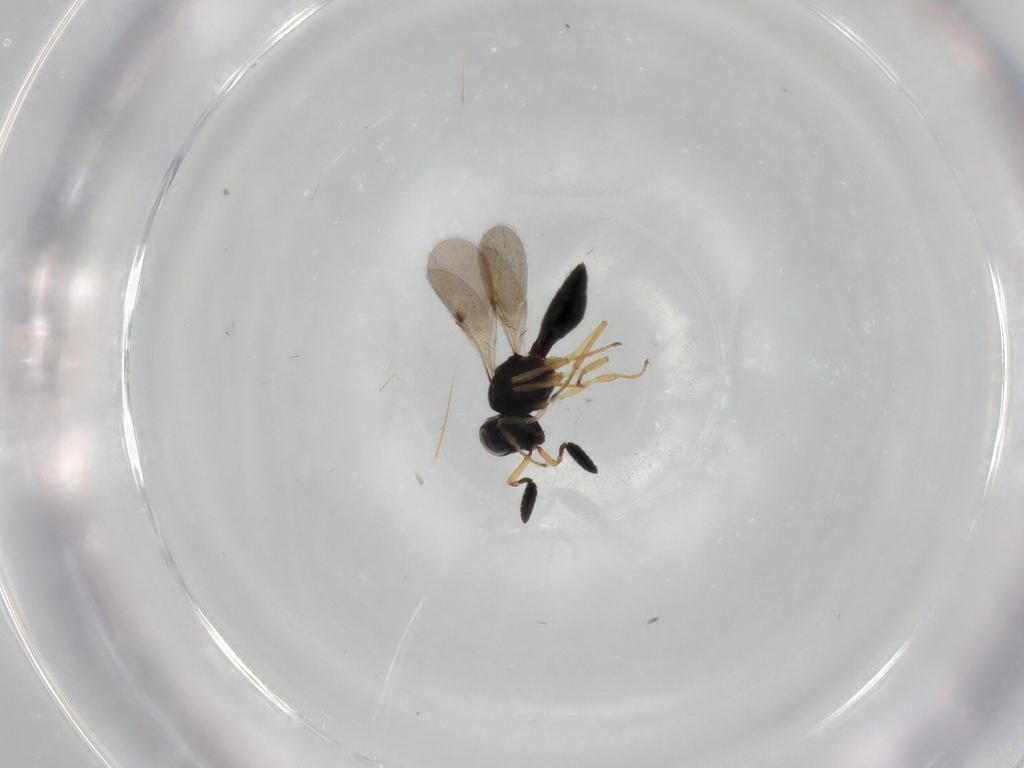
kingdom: Animalia
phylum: Arthropoda
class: Insecta
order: Hymenoptera
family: Scelionidae
